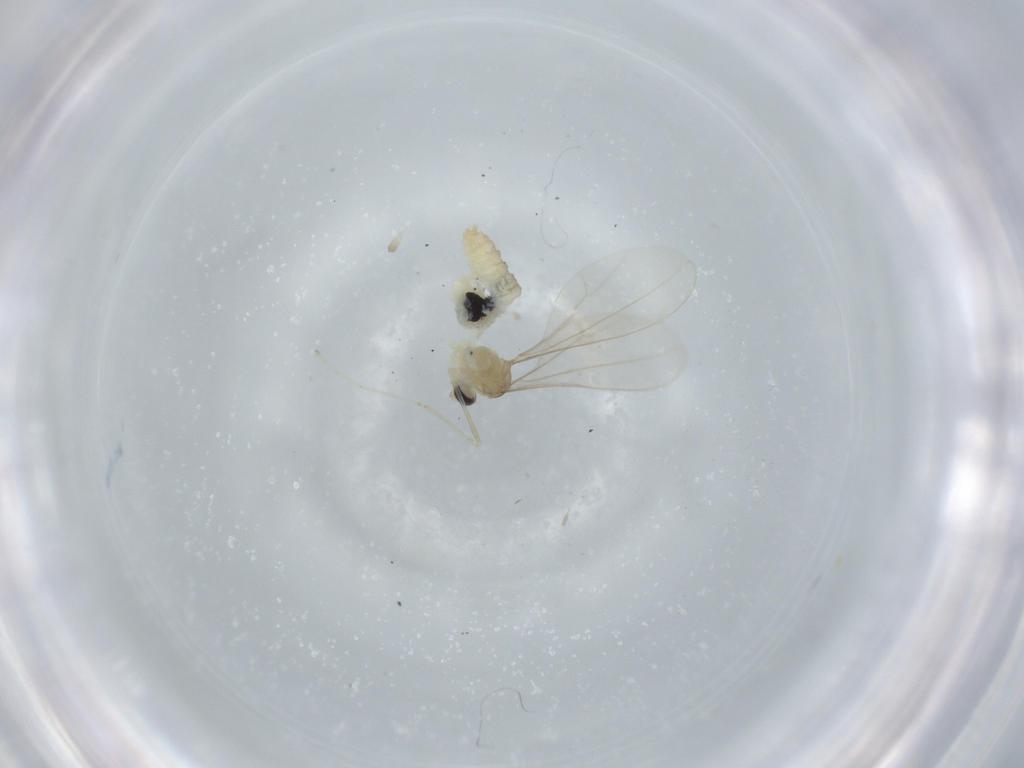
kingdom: Animalia
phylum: Arthropoda
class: Insecta
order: Diptera
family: Cecidomyiidae
